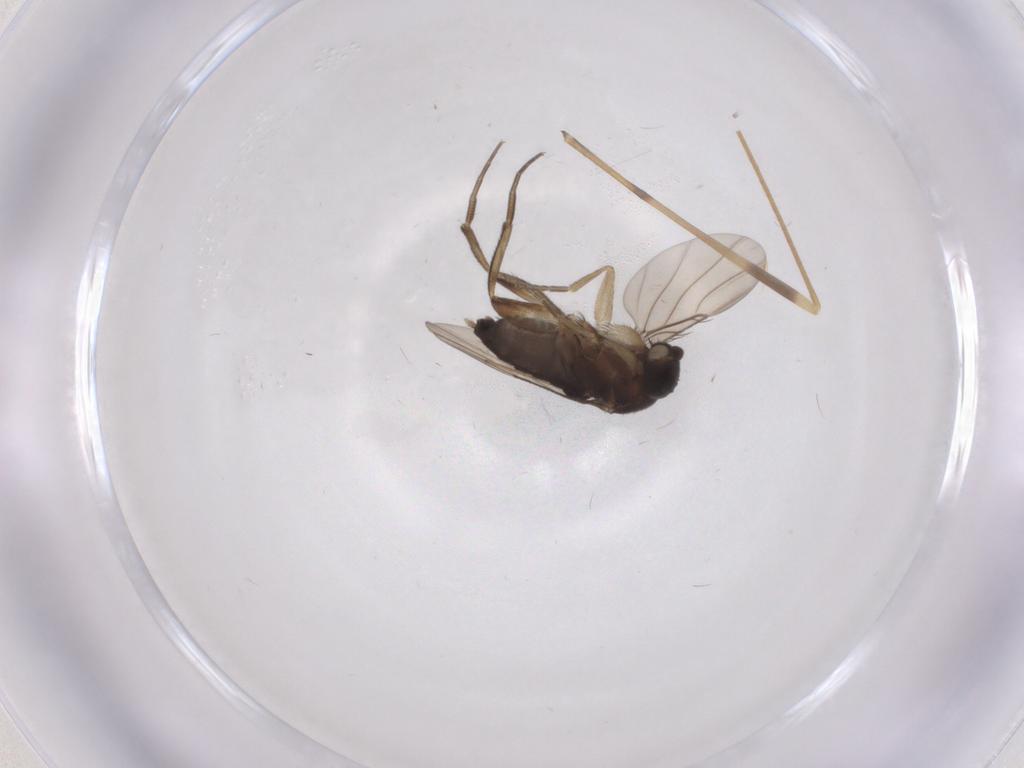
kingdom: Animalia
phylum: Arthropoda
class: Insecta
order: Diptera
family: Phoridae
